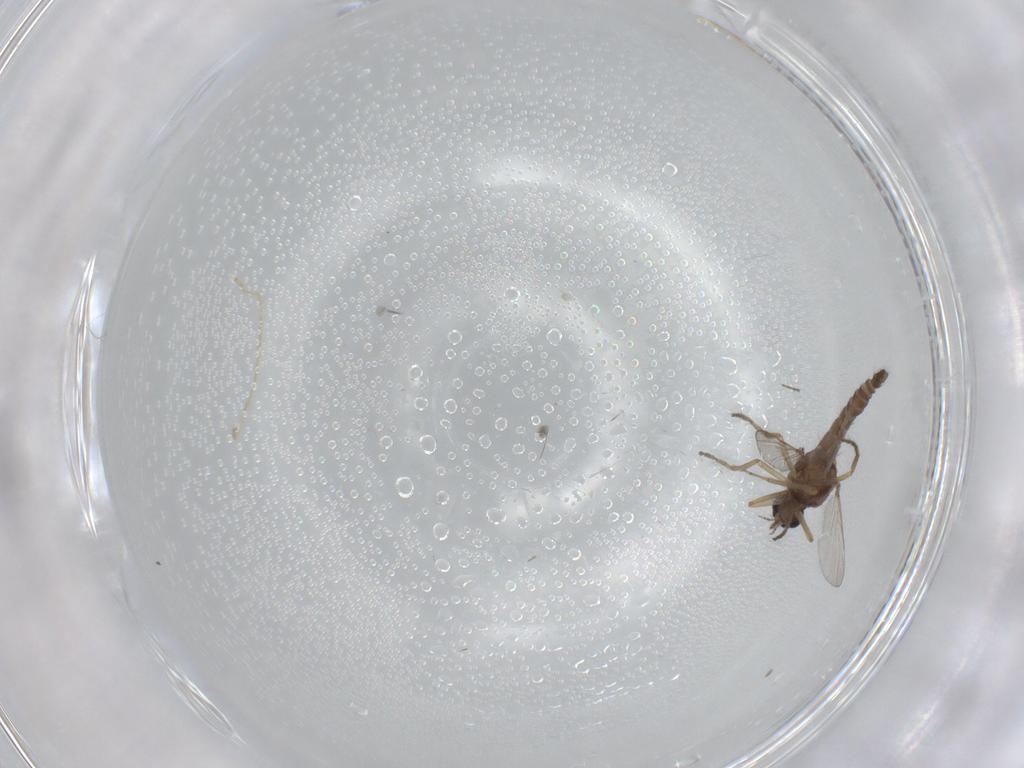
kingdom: Animalia
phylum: Arthropoda
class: Insecta
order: Diptera
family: Ceratopogonidae
